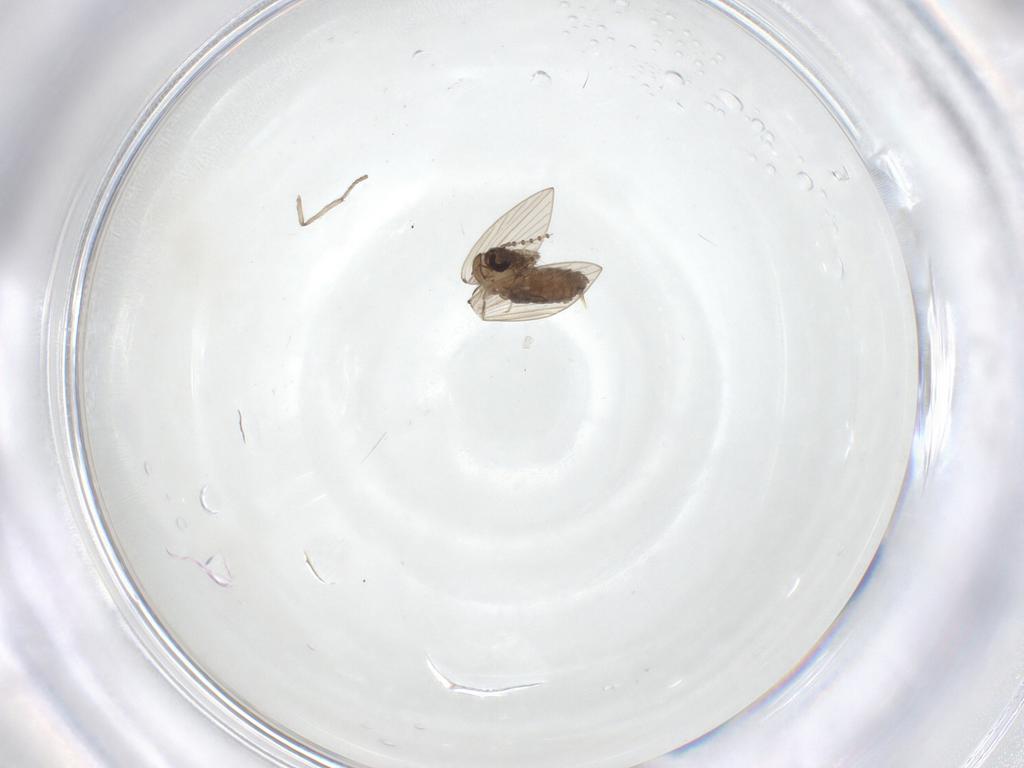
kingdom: Animalia
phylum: Arthropoda
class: Insecta
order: Diptera
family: Psychodidae
